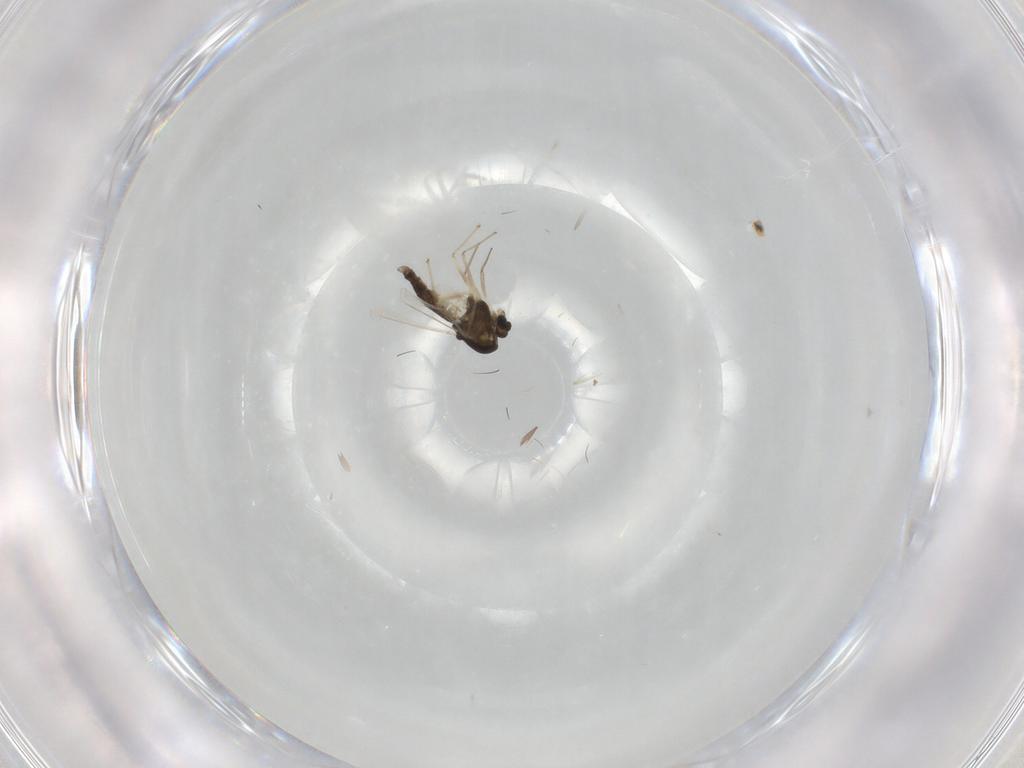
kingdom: Animalia
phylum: Arthropoda
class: Insecta
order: Diptera
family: Chironomidae
